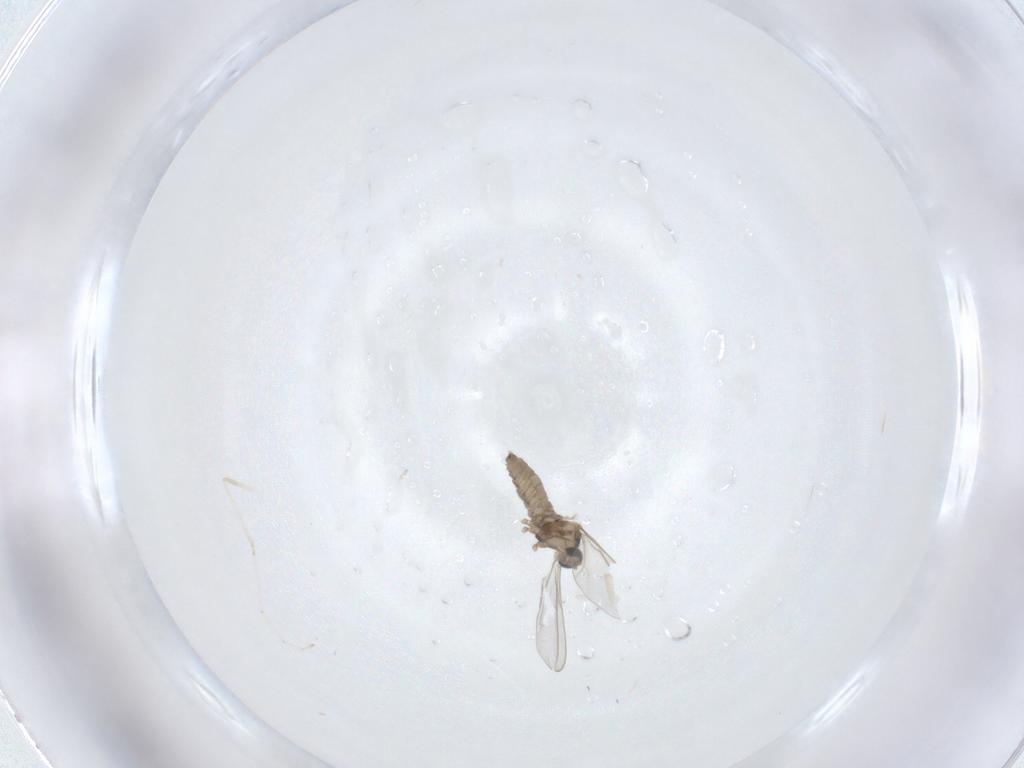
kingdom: Animalia
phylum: Arthropoda
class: Insecta
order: Diptera
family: Chloropidae
